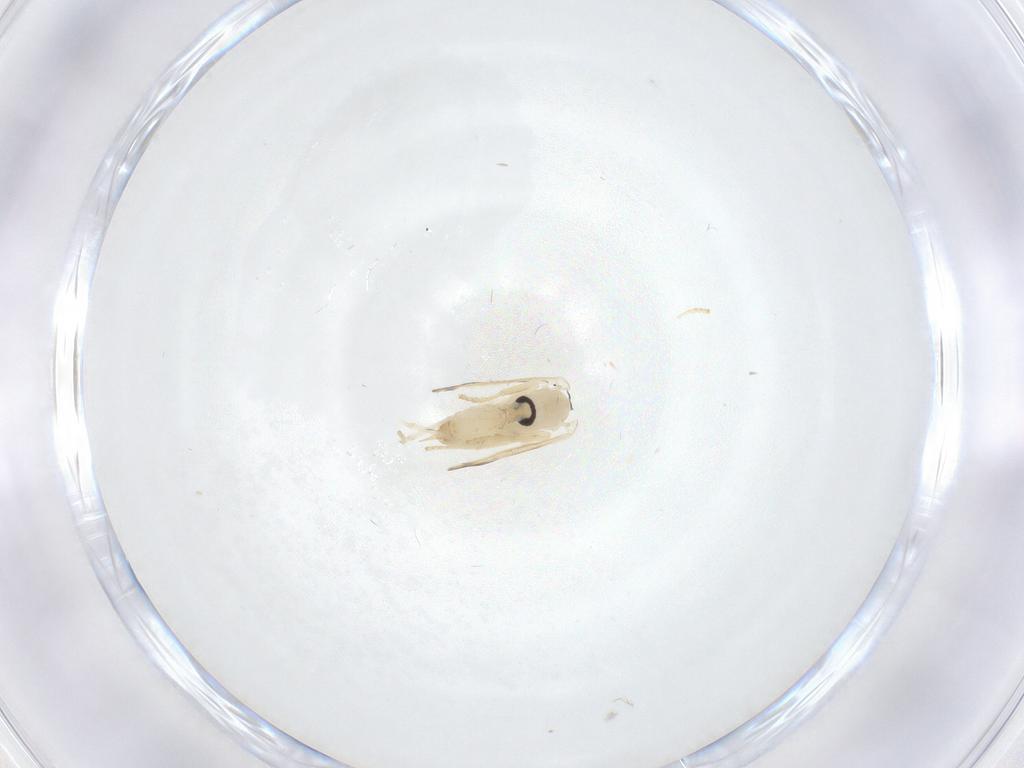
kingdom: Animalia
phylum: Arthropoda
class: Insecta
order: Diptera
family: Psychodidae
